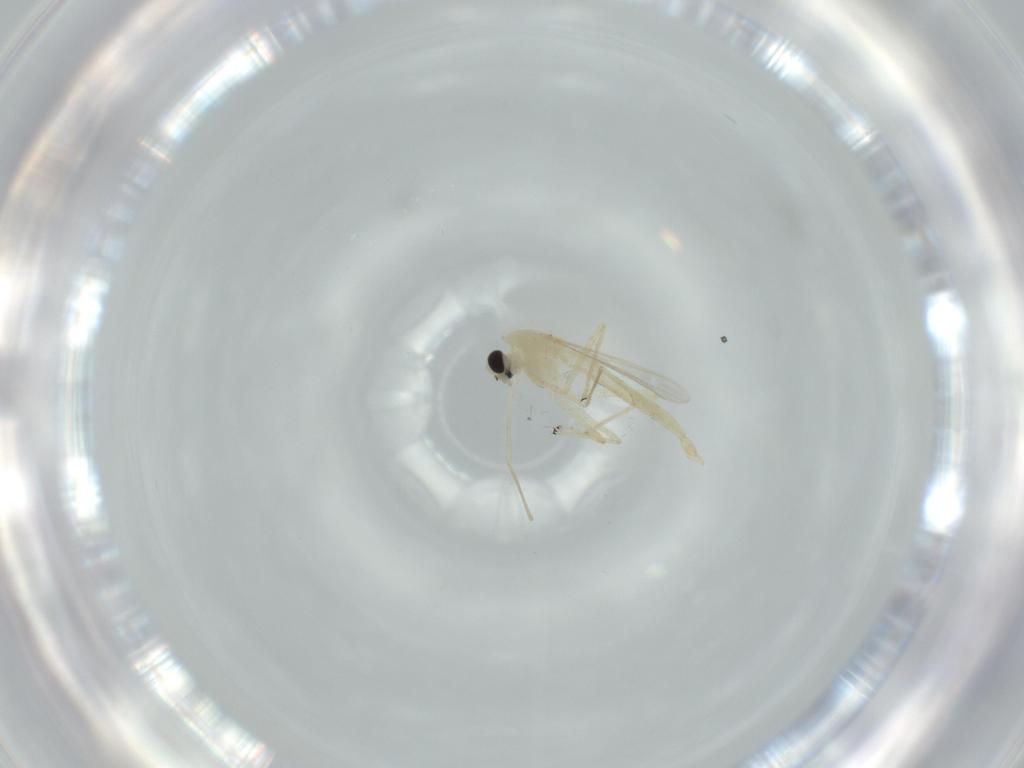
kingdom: Animalia
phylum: Arthropoda
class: Insecta
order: Diptera
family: Chironomidae
